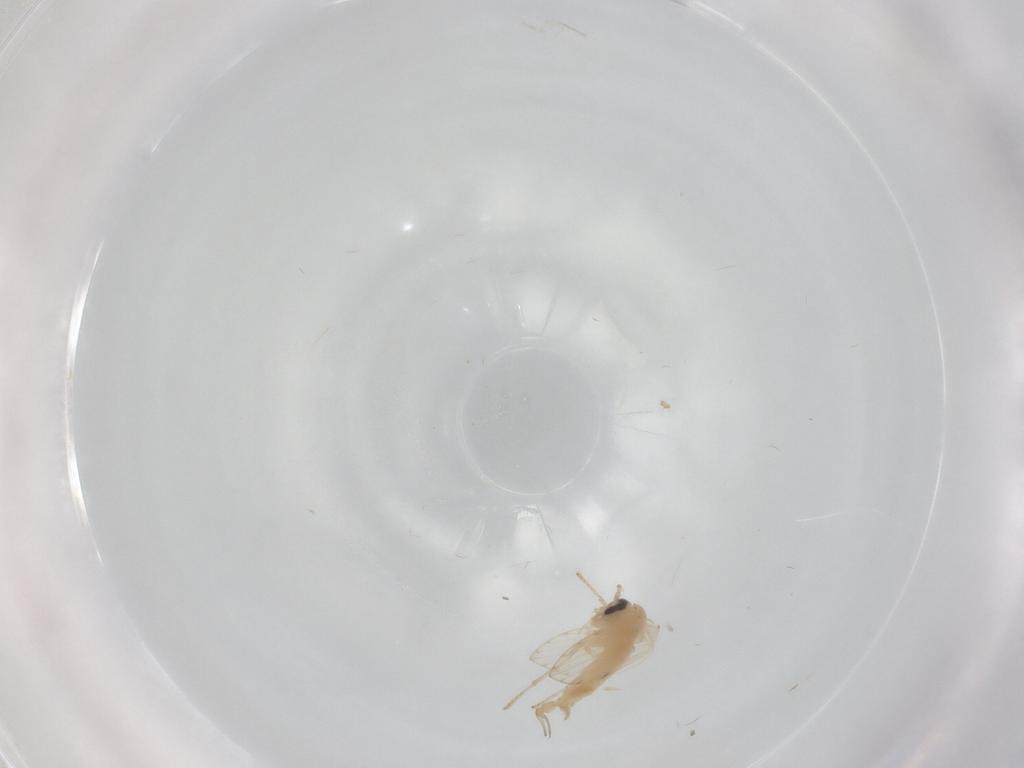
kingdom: Animalia
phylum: Arthropoda
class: Insecta
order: Diptera
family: Psychodidae
